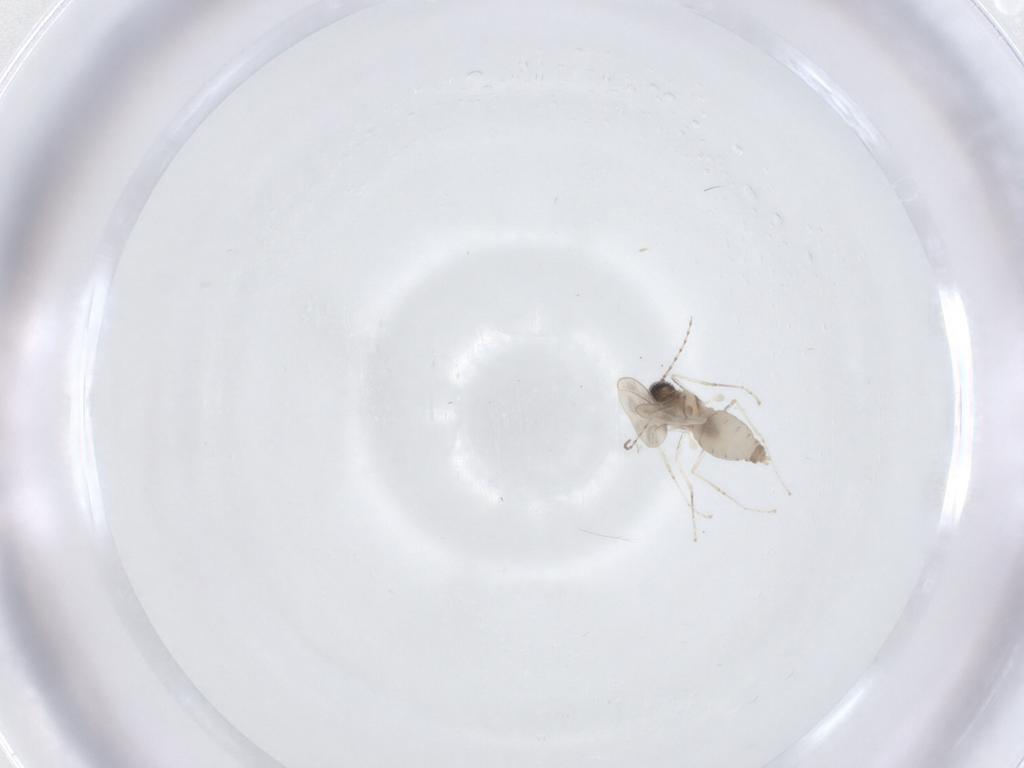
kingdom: Animalia
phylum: Arthropoda
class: Insecta
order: Diptera
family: Cecidomyiidae
